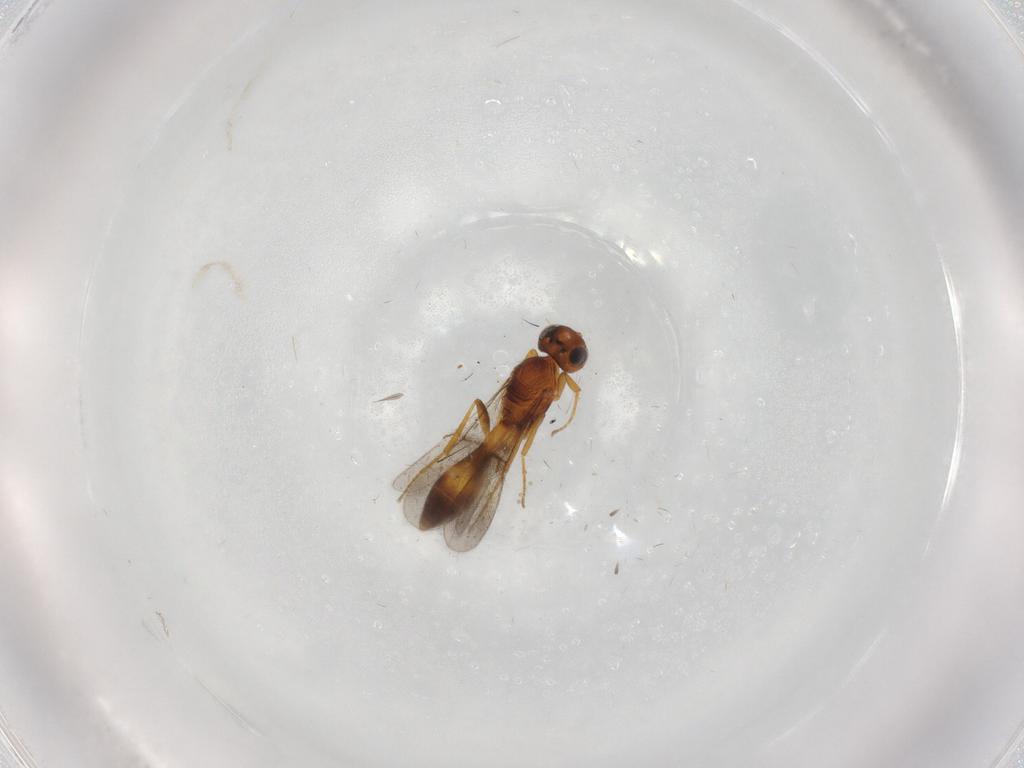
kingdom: Animalia
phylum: Arthropoda
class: Insecta
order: Hymenoptera
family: Scelionidae
